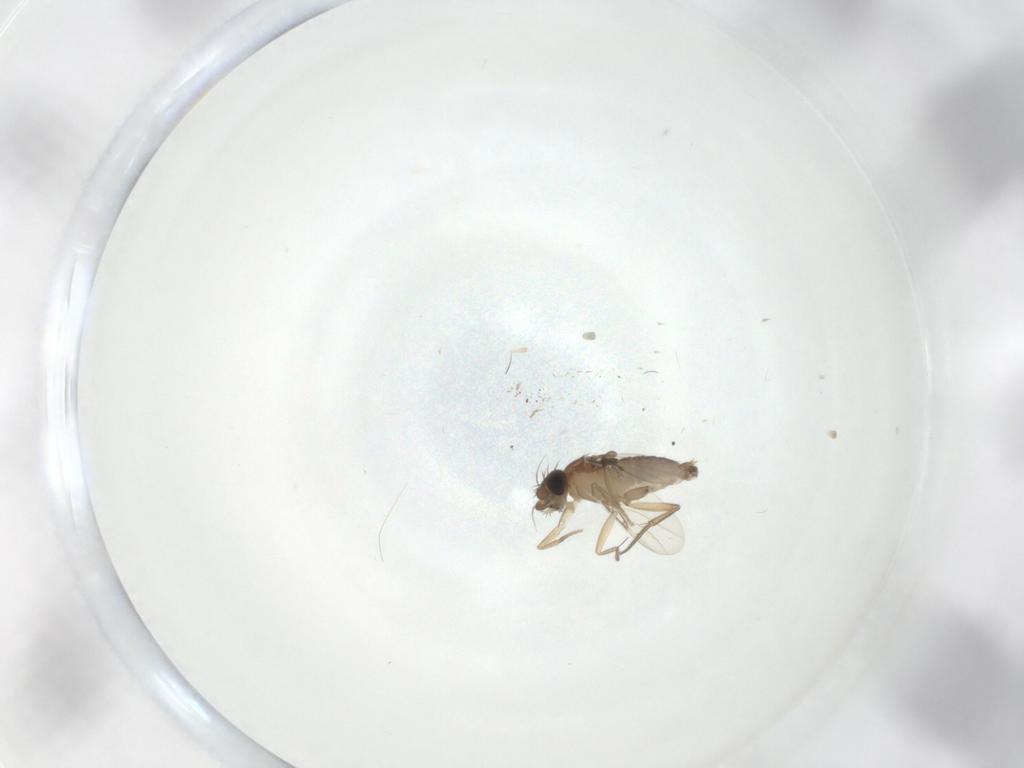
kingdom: Animalia
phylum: Arthropoda
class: Insecta
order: Diptera
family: Phoridae
